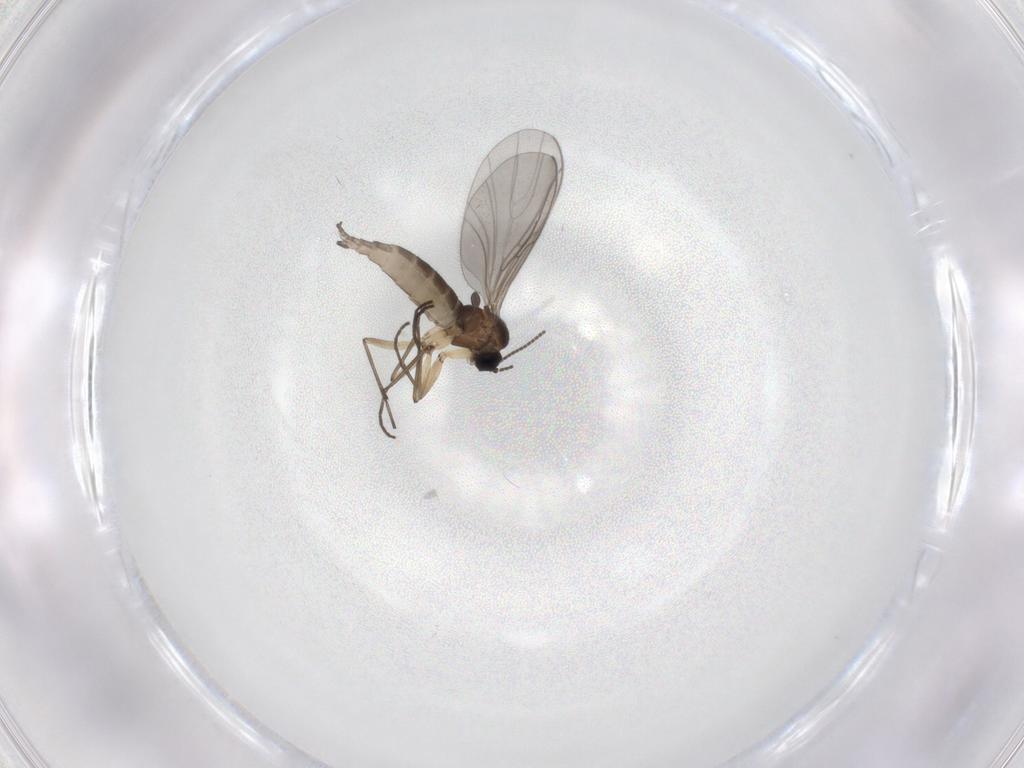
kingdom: Animalia
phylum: Arthropoda
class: Insecta
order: Diptera
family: Sciaridae
